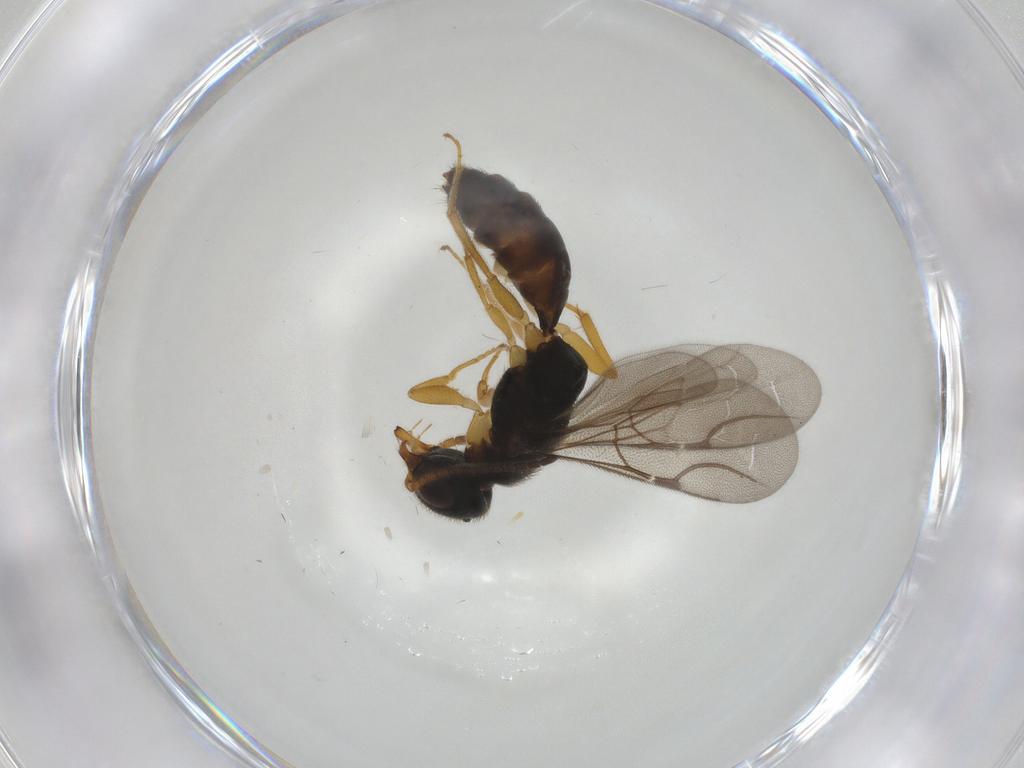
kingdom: Animalia
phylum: Arthropoda
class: Insecta
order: Hymenoptera
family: Bethylidae
